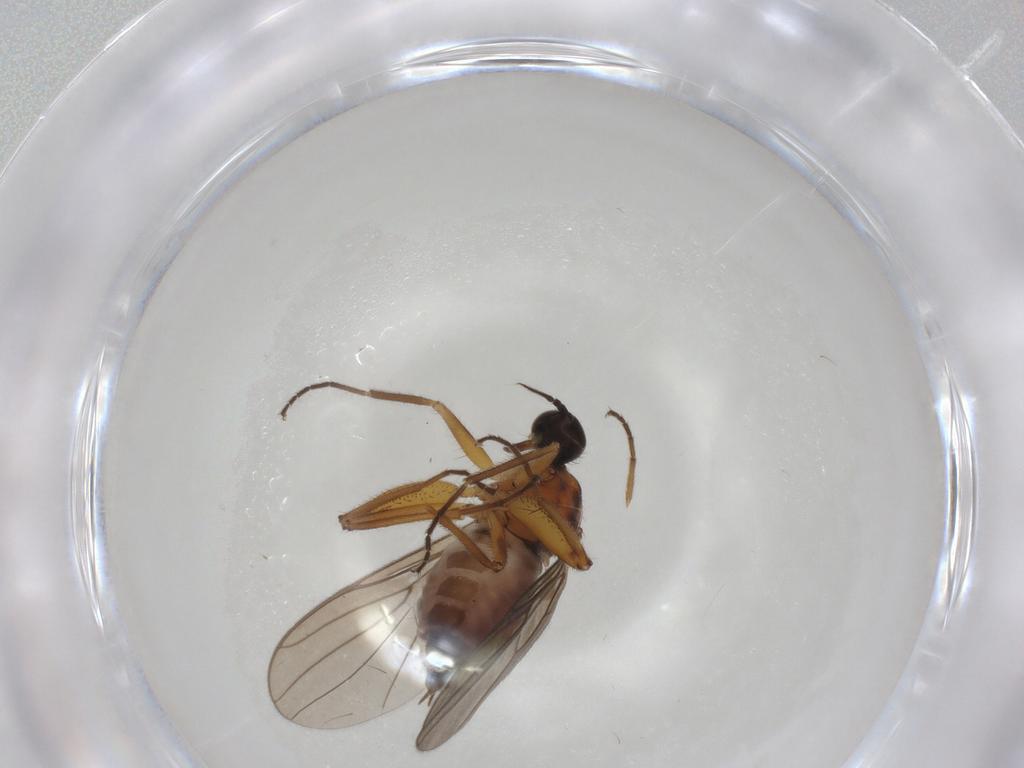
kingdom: Animalia
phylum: Arthropoda
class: Insecta
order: Diptera
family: Hybotidae
